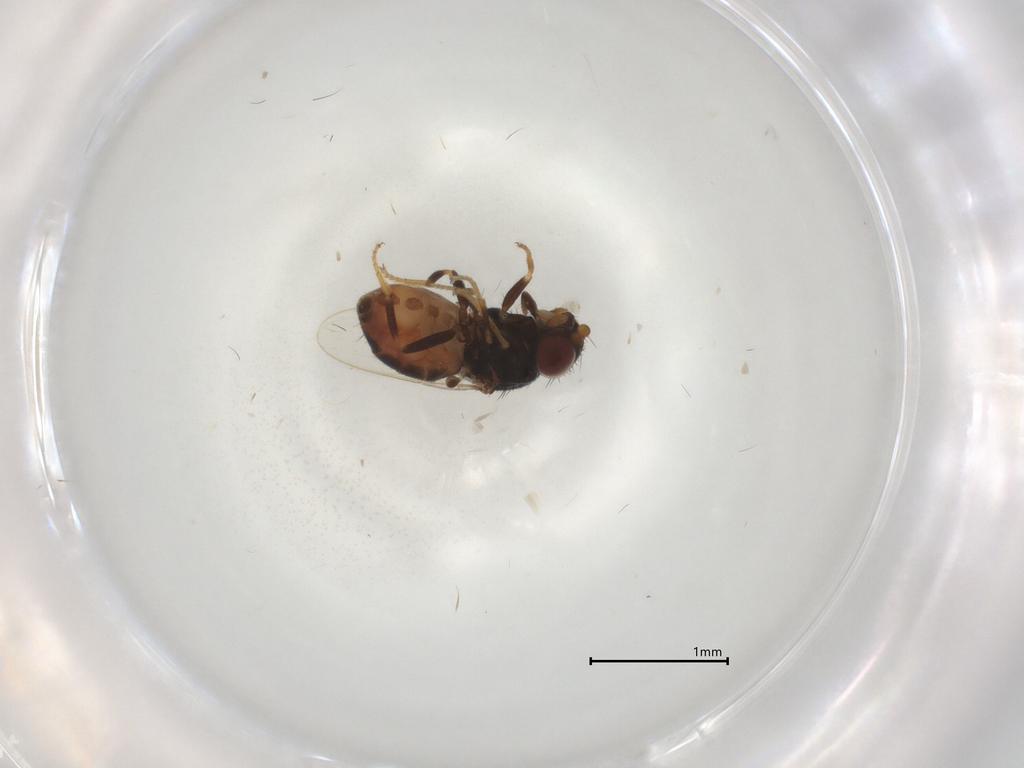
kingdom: Animalia
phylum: Arthropoda
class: Insecta
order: Diptera
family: Chloropidae
